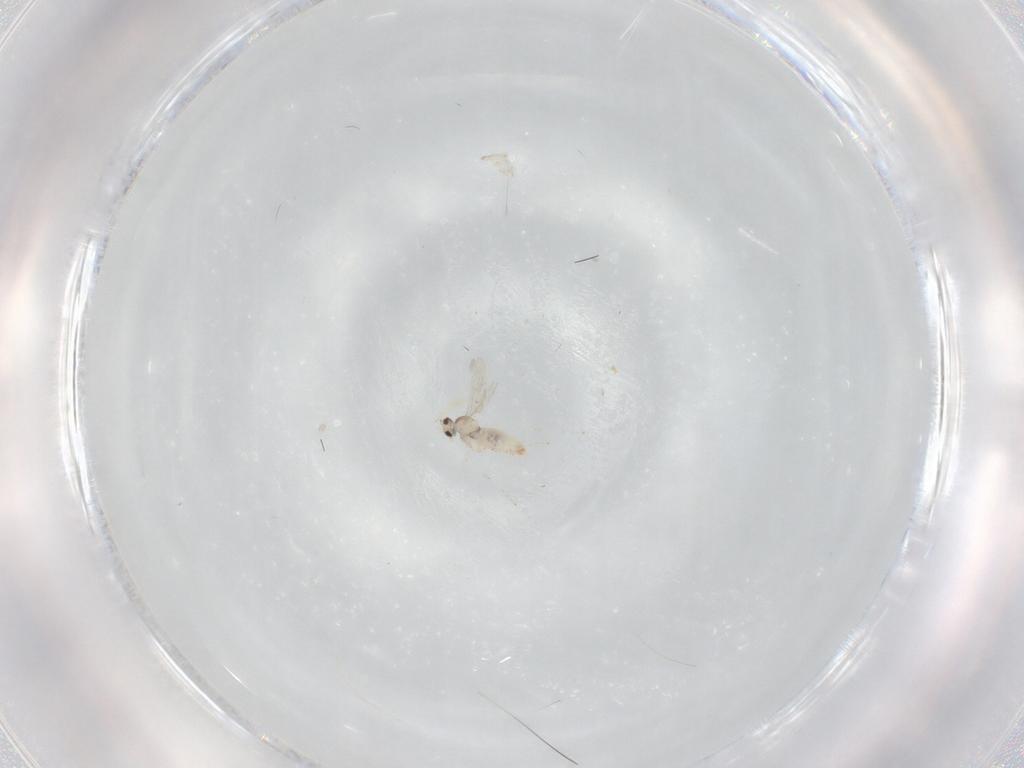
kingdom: Animalia
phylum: Arthropoda
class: Insecta
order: Diptera
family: Cecidomyiidae
